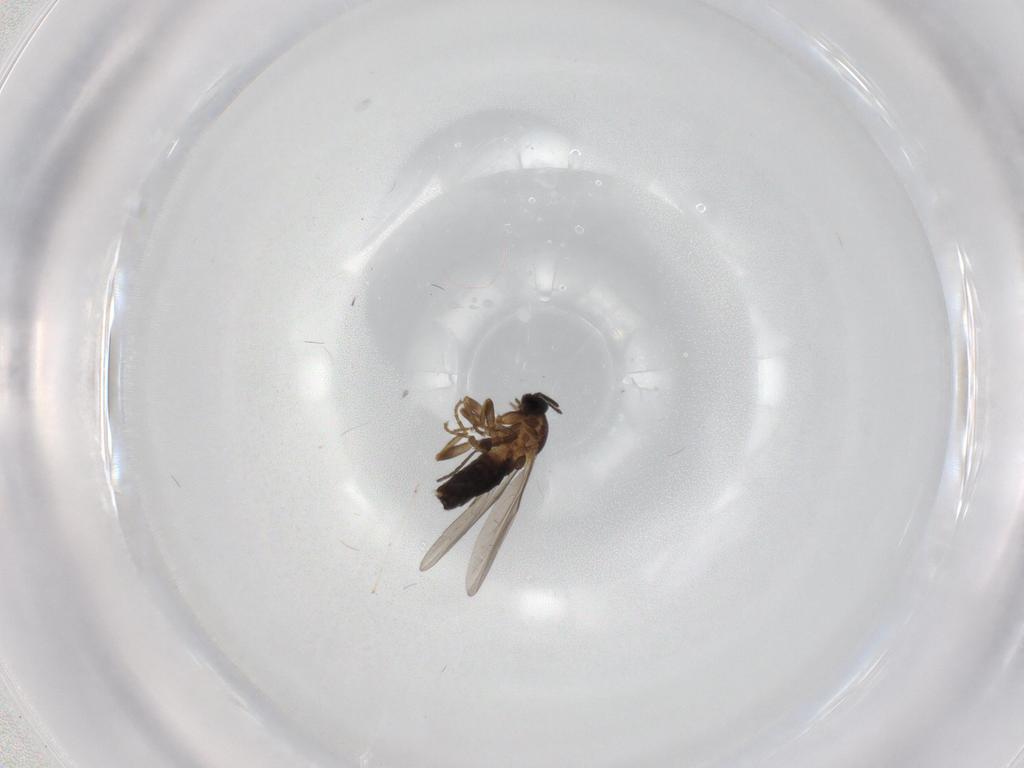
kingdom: Animalia
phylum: Arthropoda
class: Insecta
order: Diptera
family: Scatopsidae
